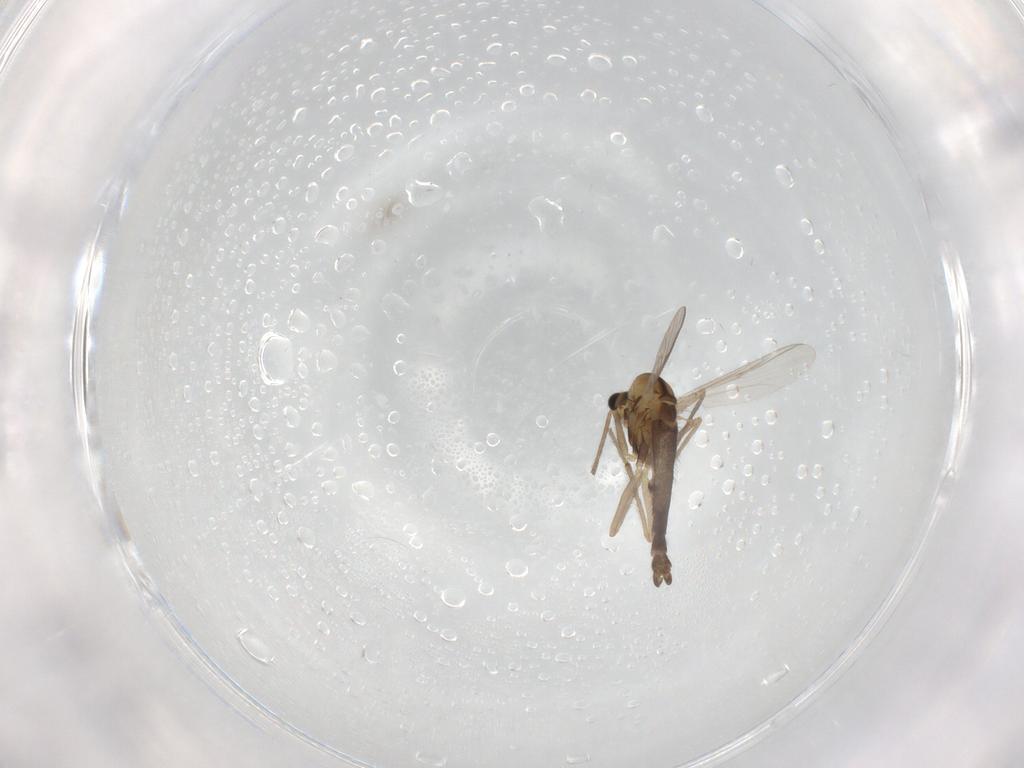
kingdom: Animalia
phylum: Arthropoda
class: Insecta
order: Diptera
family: Chironomidae
